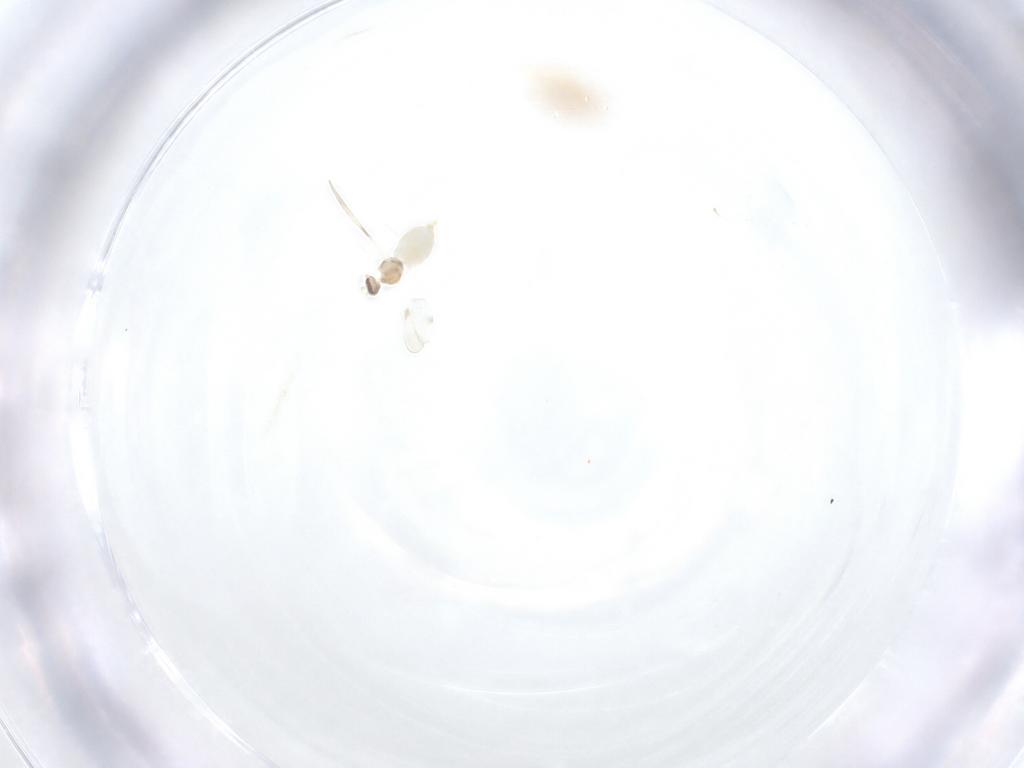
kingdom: Animalia
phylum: Arthropoda
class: Insecta
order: Diptera
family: Cecidomyiidae
